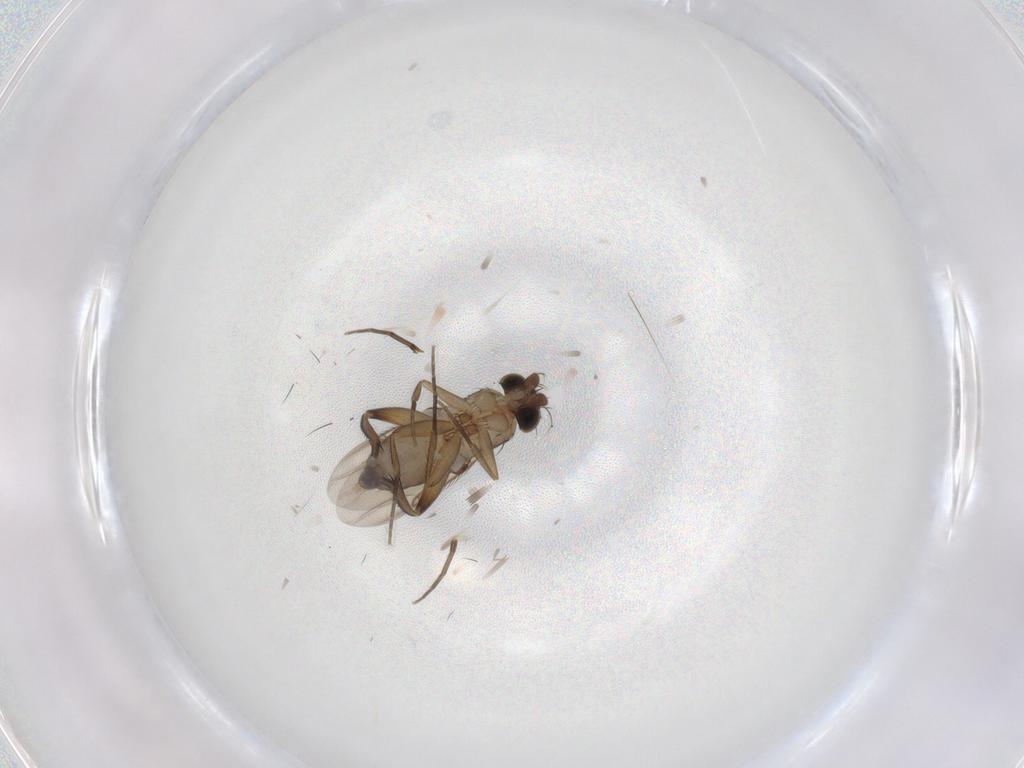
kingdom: Animalia
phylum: Arthropoda
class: Insecta
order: Diptera
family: Phoridae
